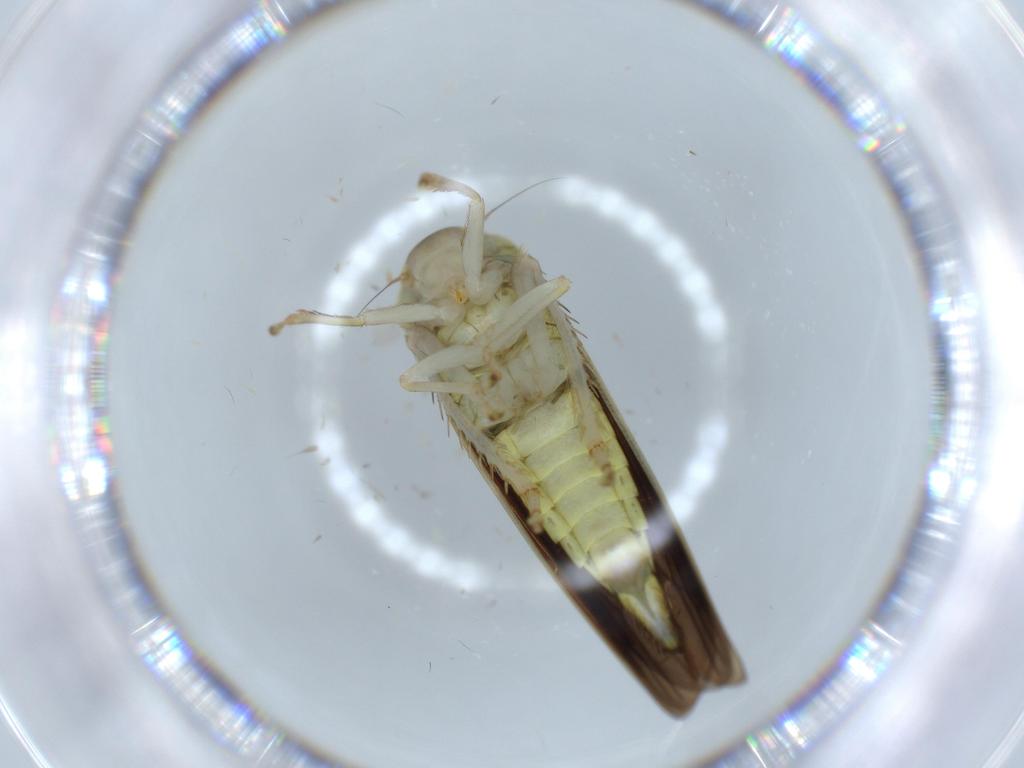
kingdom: Animalia
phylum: Arthropoda
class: Insecta
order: Hemiptera
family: Cicadellidae
